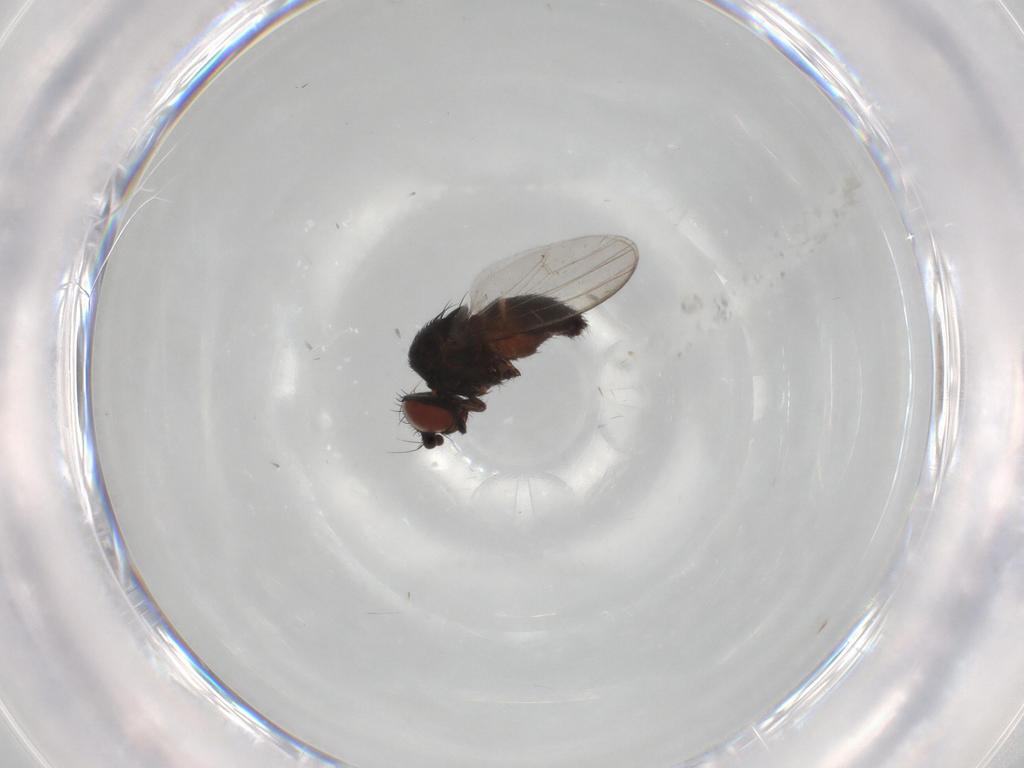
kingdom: Animalia
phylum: Arthropoda
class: Insecta
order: Diptera
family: Milichiidae
